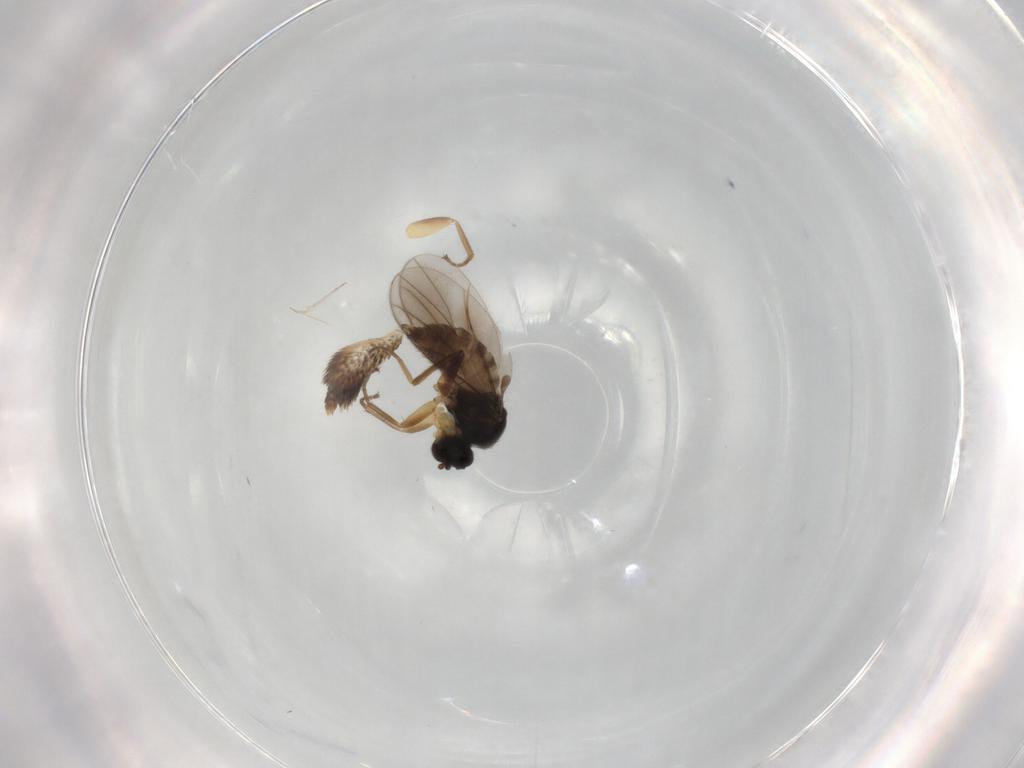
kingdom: Animalia
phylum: Arthropoda
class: Insecta
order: Diptera
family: Hybotidae
